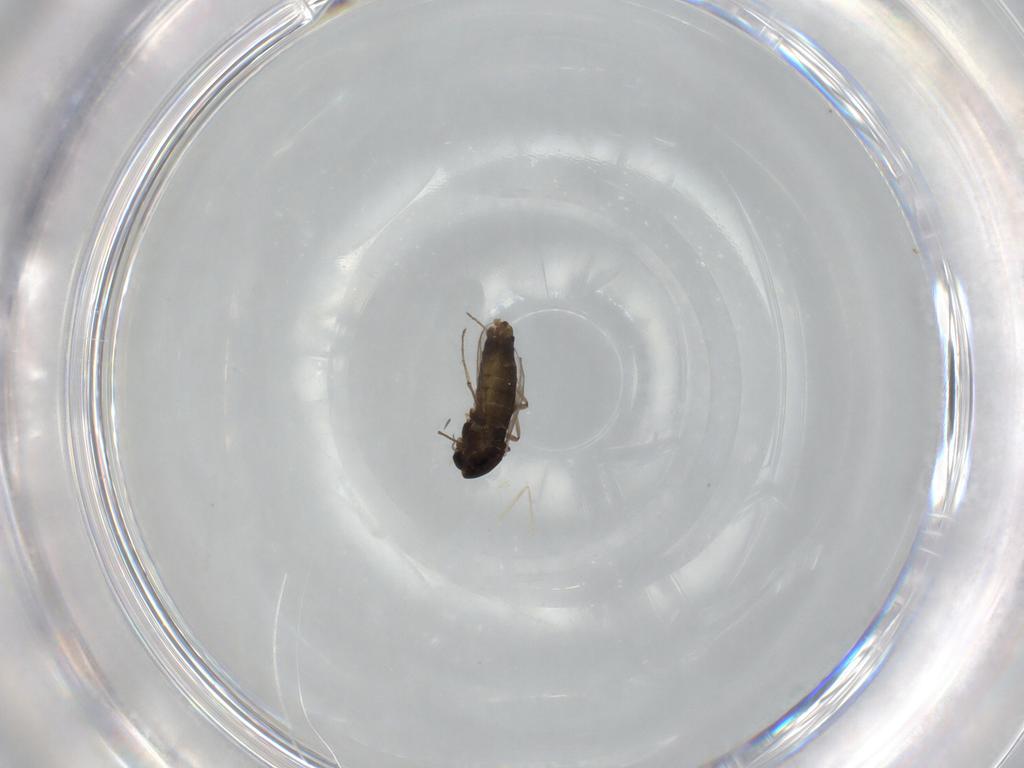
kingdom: Animalia
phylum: Arthropoda
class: Insecta
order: Diptera
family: Chironomidae
